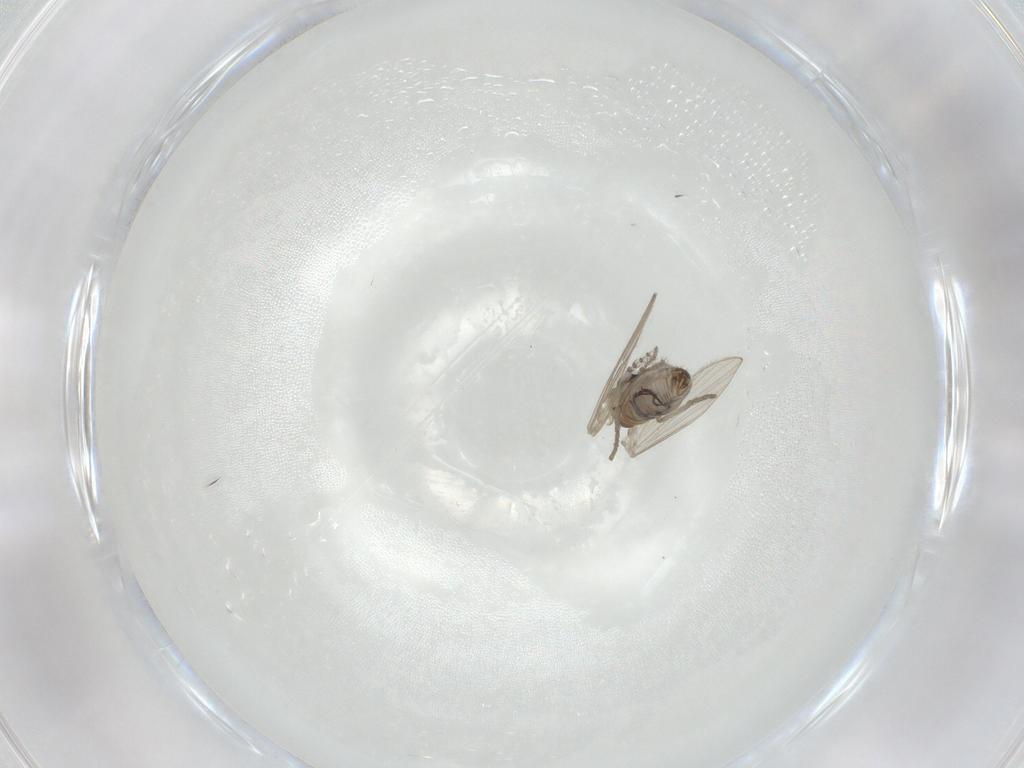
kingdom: Animalia
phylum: Arthropoda
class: Insecta
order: Diptera
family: Psychodidae
